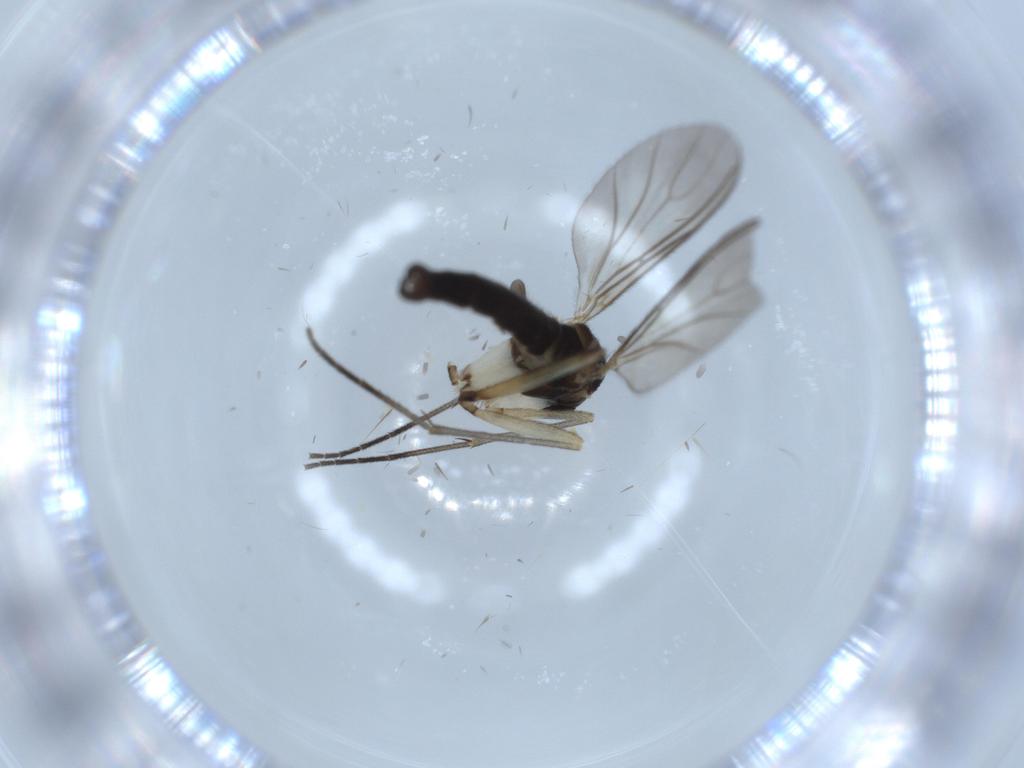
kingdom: Animalia
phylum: Arthropoda
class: Insecta
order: Diptera
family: Sciaridae
